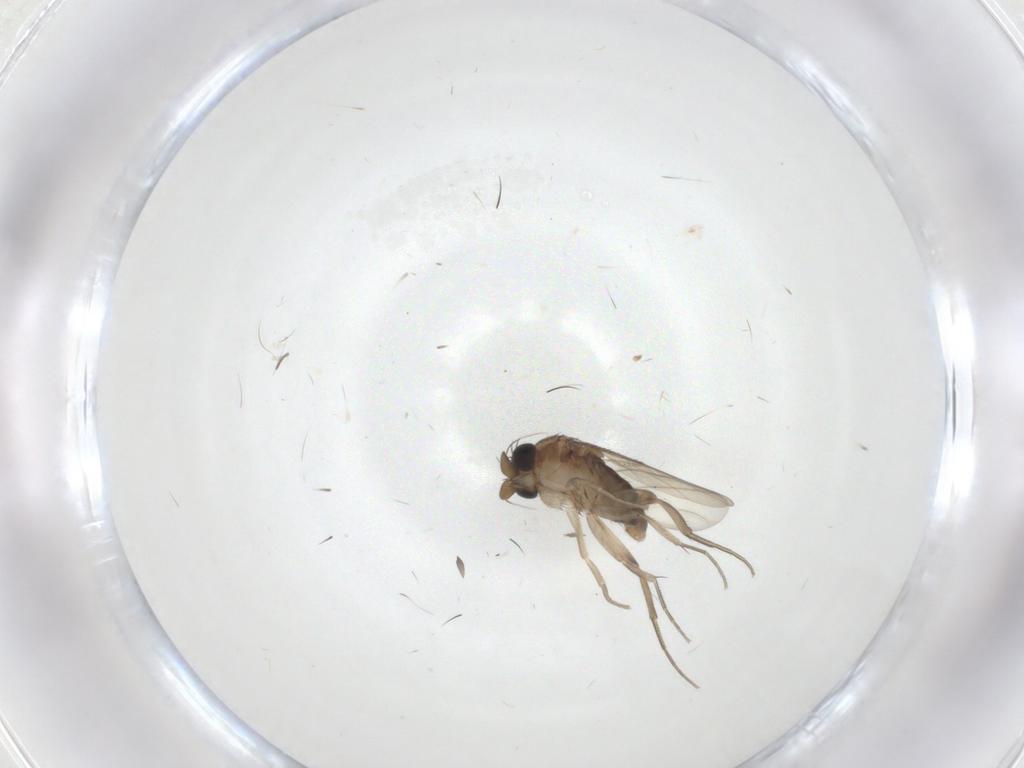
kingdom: Animalia
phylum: Arthropoda
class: Insecta
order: Diptera
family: Phoridae
